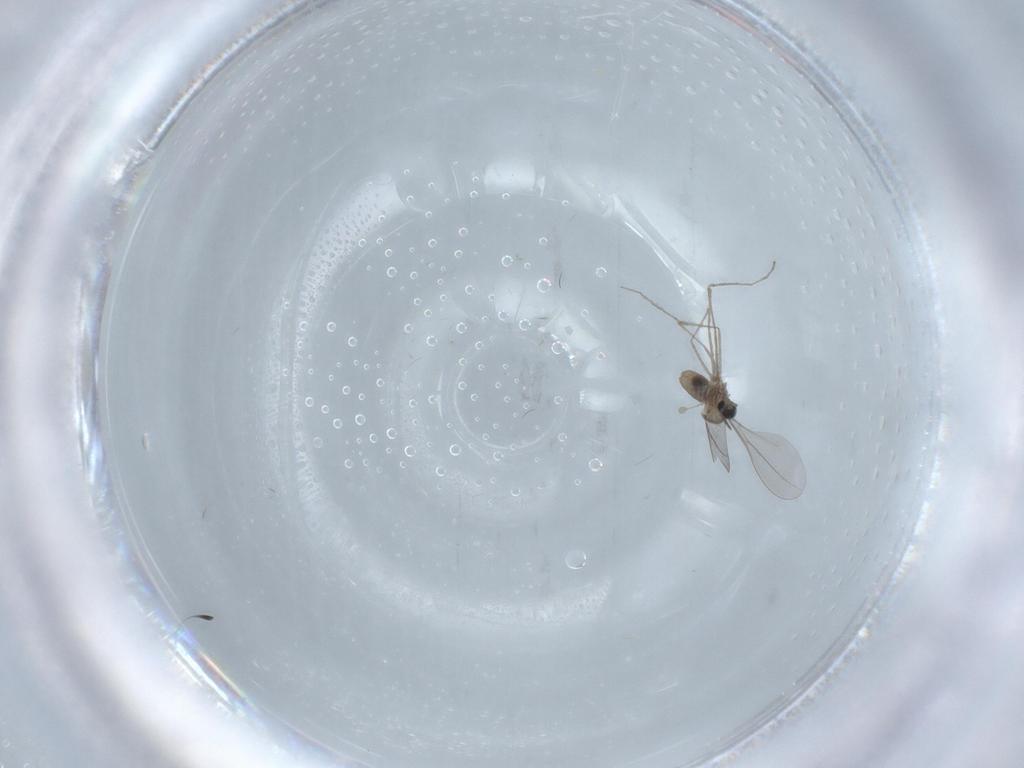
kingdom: Animalia
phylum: Arthropoda
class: Insecta
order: Diptera
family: Cecidomyiidae
